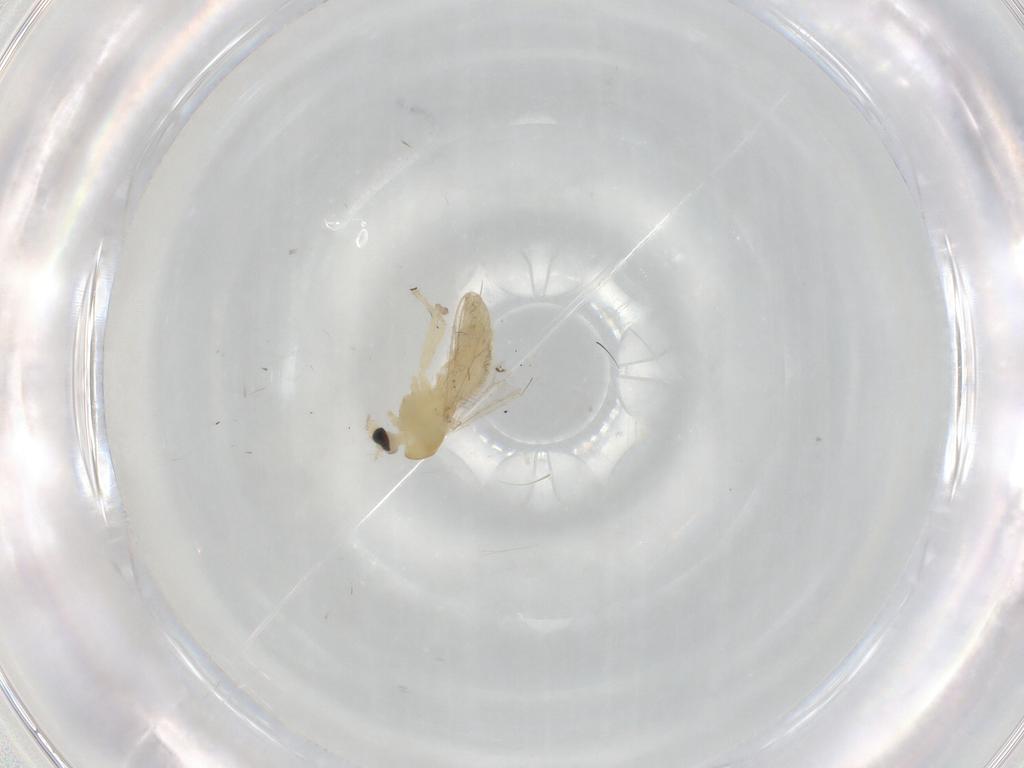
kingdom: Animalia
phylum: Arthropoda
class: Insecta
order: Diptera
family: Chironomidae
